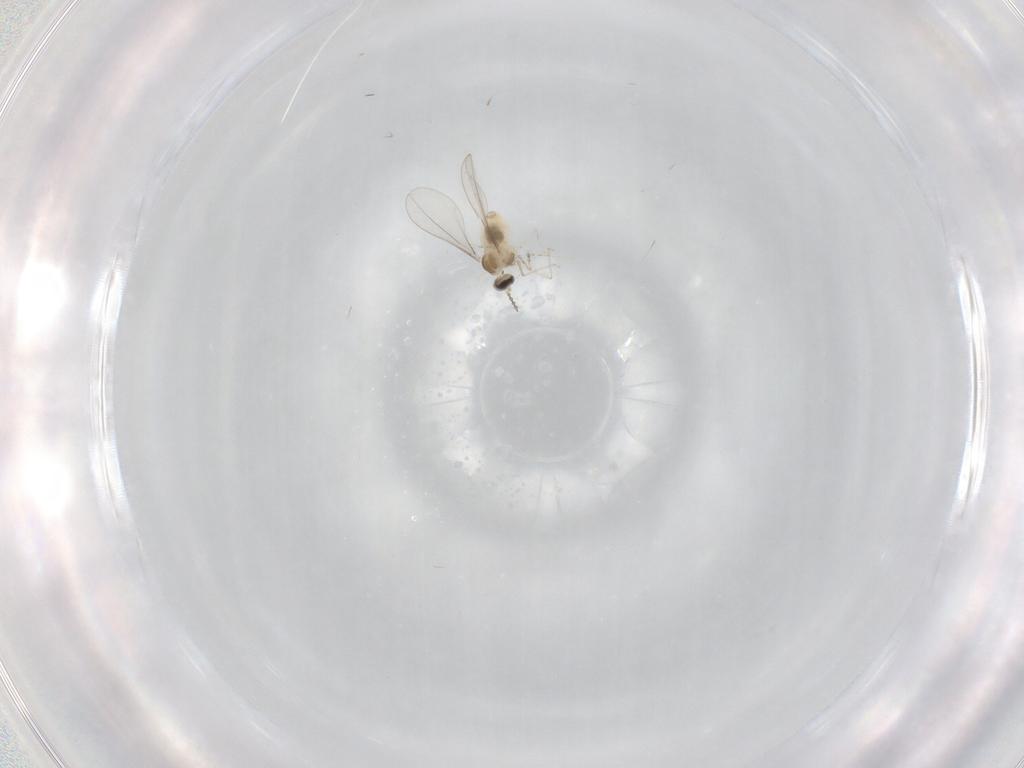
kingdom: Animalia
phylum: Arthropoda
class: Insecta
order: Diptera
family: Cecidomyiidae
